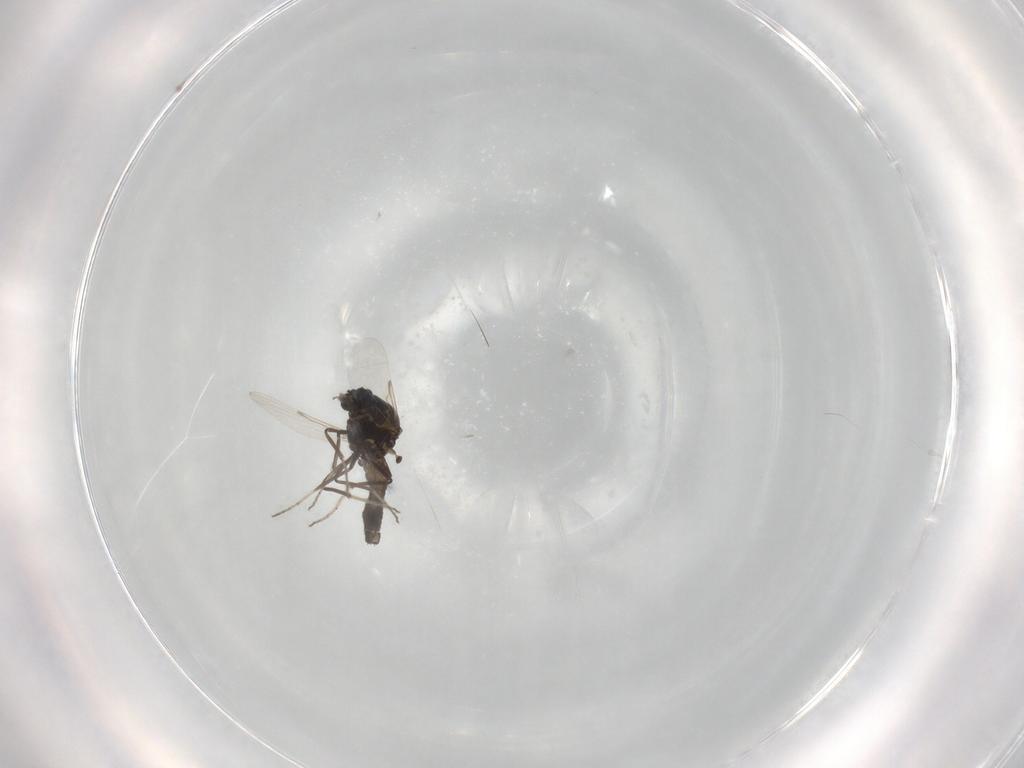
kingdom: Animalia
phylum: Arthropoda
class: Insecta
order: Diptera
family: Ceratopogonidae
